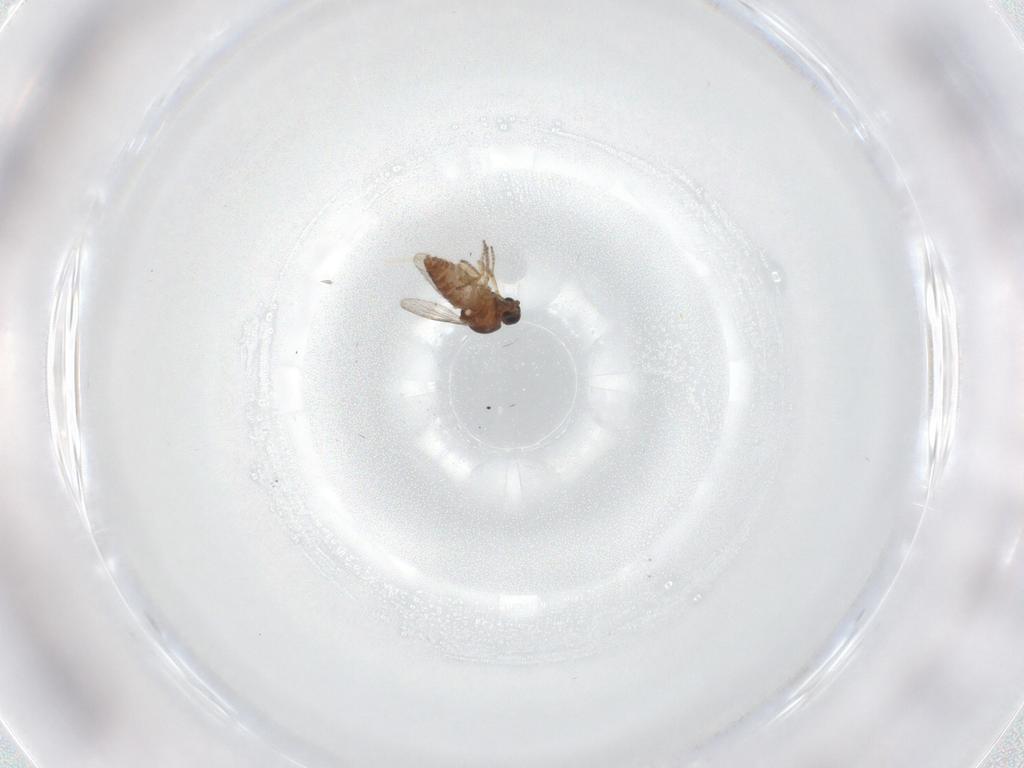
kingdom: Animalia
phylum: Arthropoda
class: Insecta
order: Diptera
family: Ceratopogonidae
